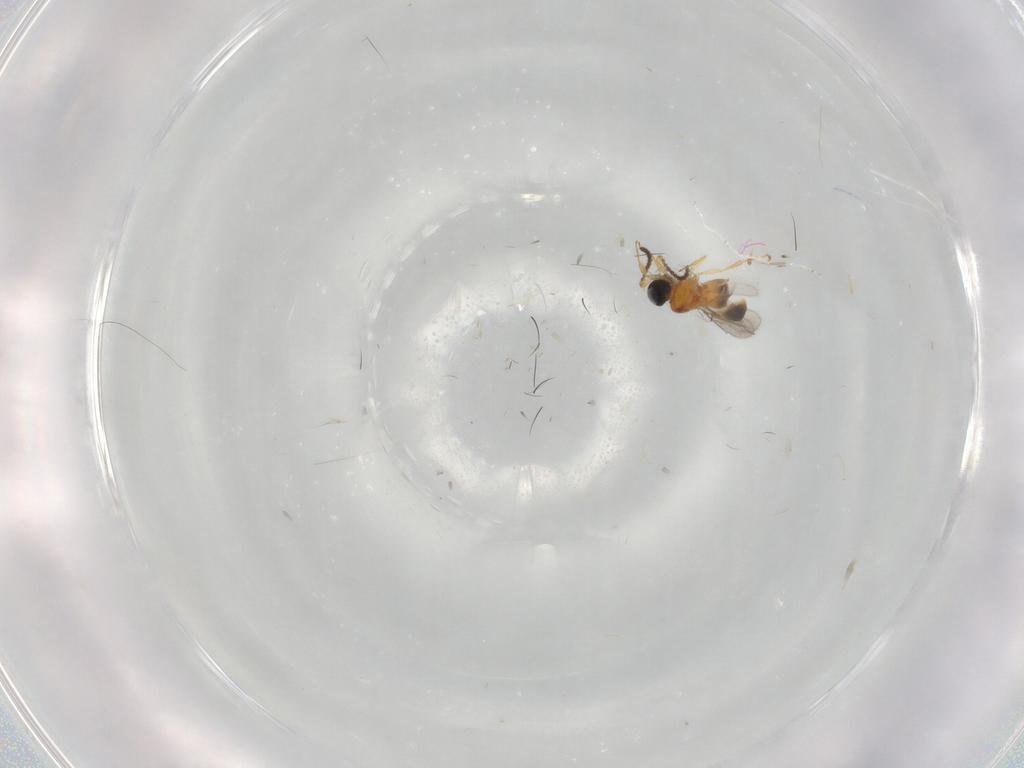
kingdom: Animalia
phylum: Arthropoda
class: Insecta
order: Hymenoptera
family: Scelionidae
